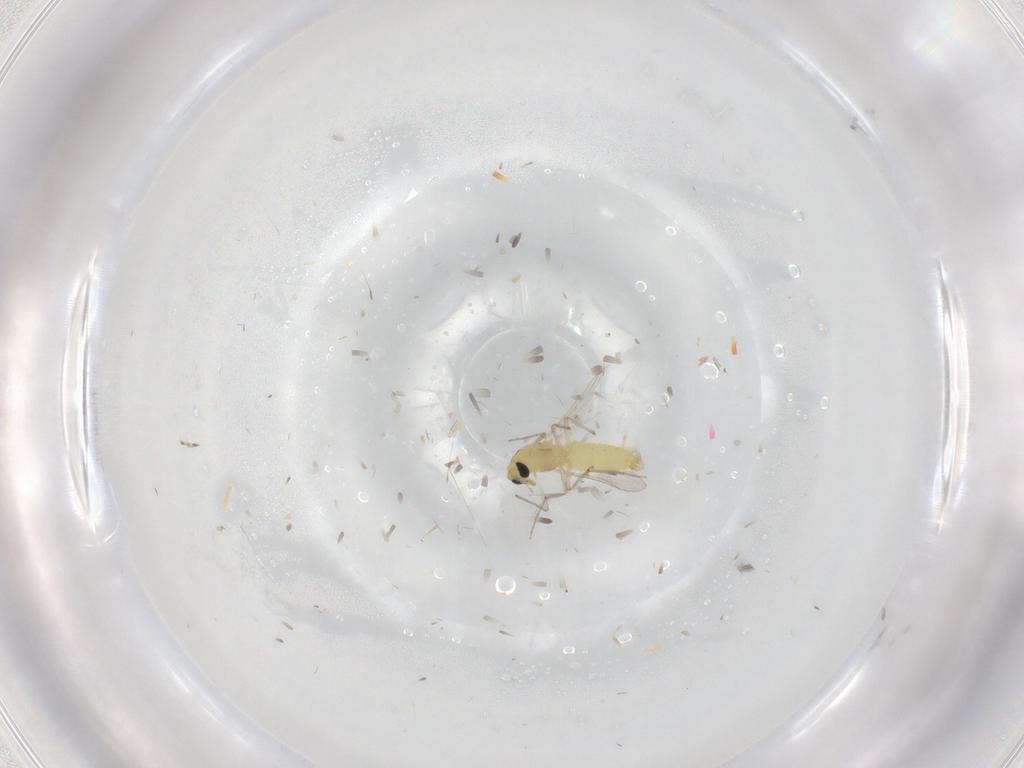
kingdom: Animalia
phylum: Arthropoda
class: Insecta
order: Diptera
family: Chironomidae
